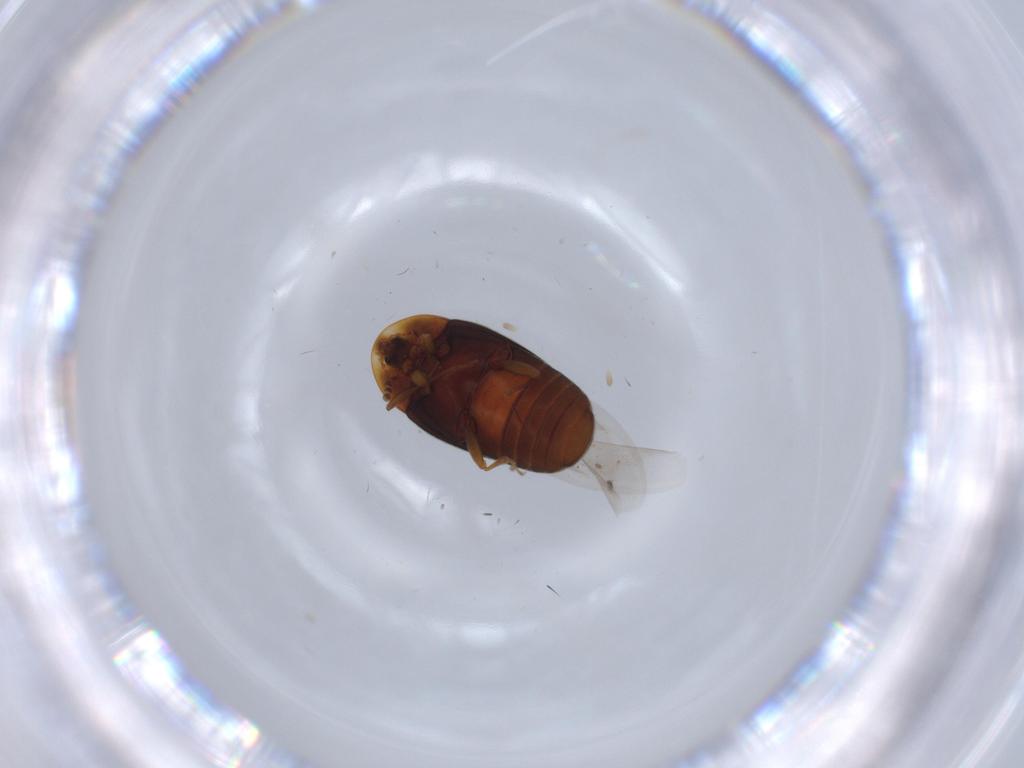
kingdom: Animalia
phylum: Arthropoda
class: Insecta
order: Coleoptera
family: Corylophidae
